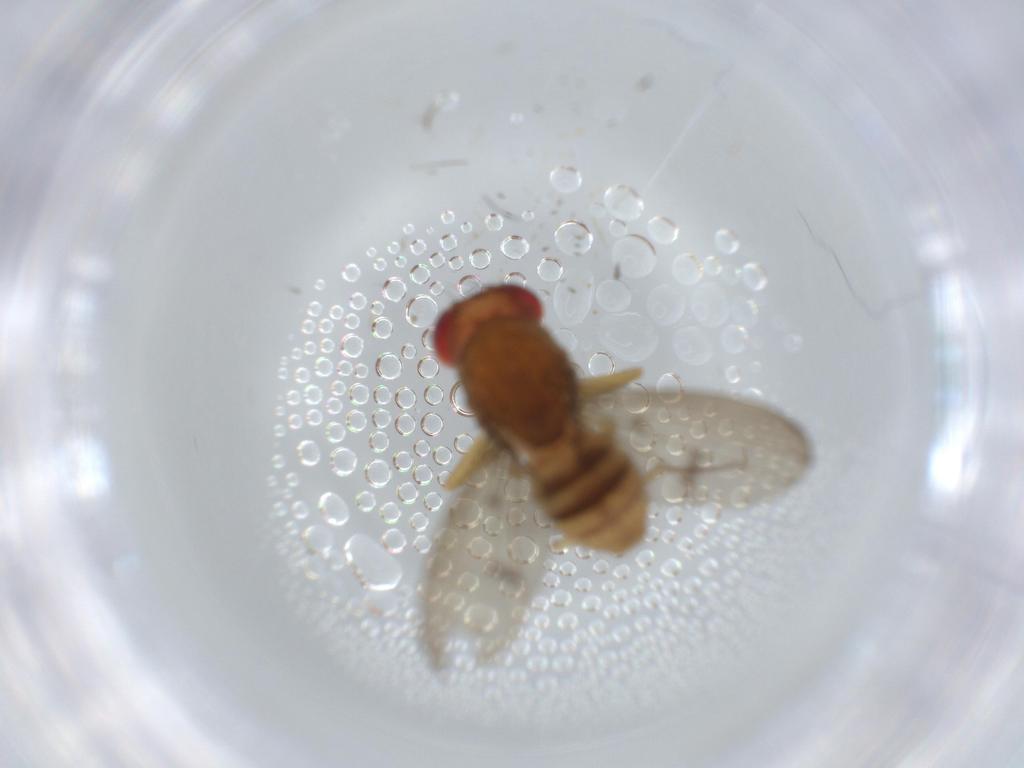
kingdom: Animalia
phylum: Arthropoda
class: Insecta
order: Diptera
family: Drosophilidae
